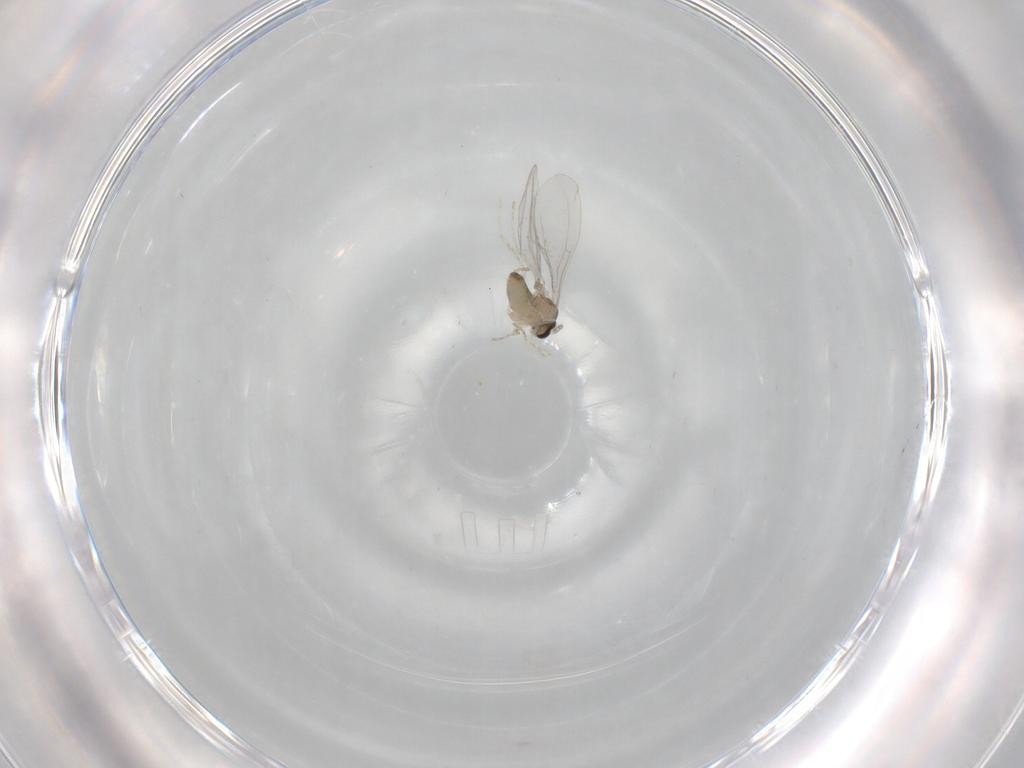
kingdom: Animalia
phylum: Arthropoda
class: Insecta
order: Diptera
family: Cecidomyiidae
